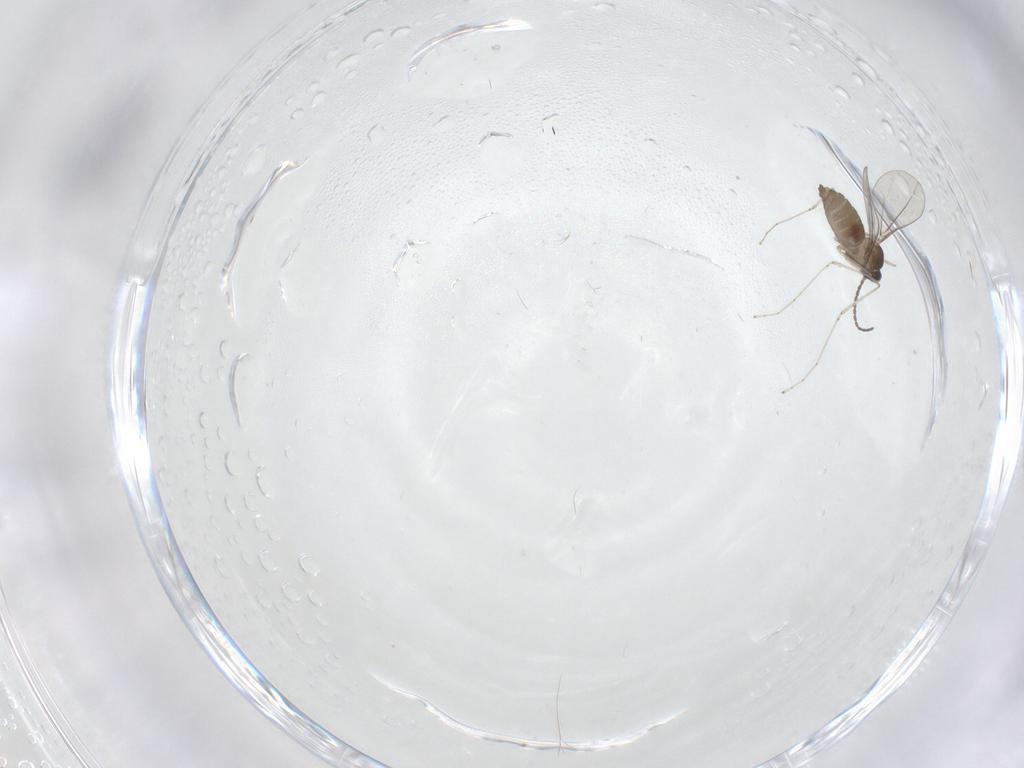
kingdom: Animalia
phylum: Arthropoda
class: Insecta
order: Diptera
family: Cecidomyiidae
